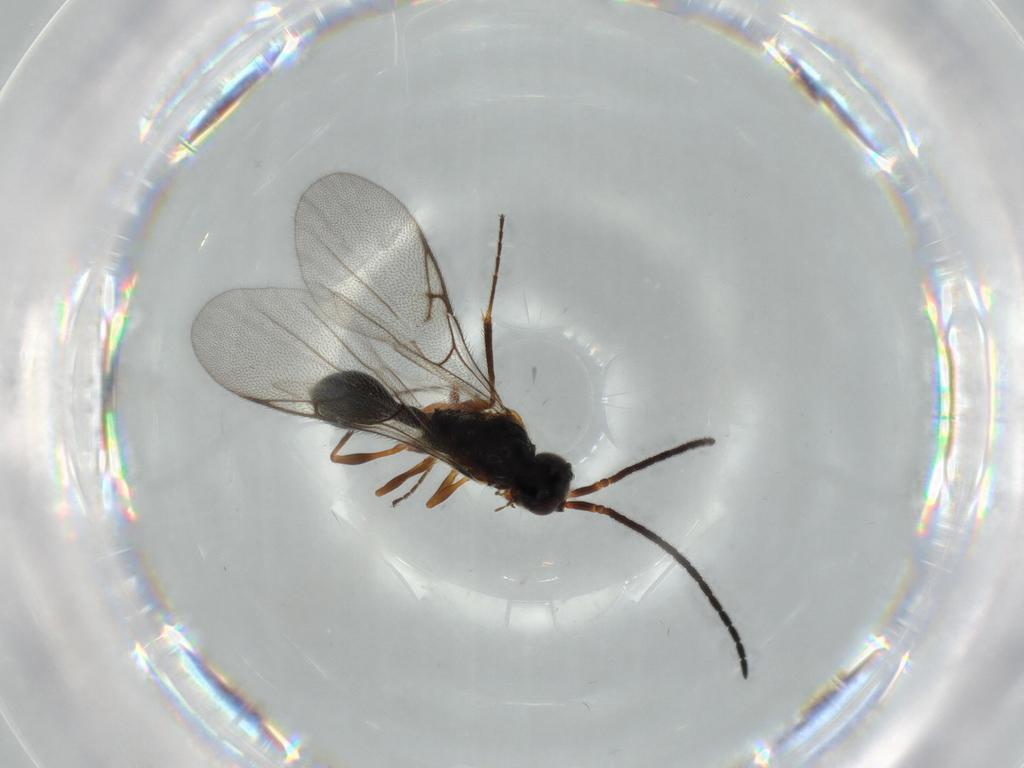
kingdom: Animalia
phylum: Arthropoda
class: Insecta
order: Hymenoptera
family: Diapriidae
